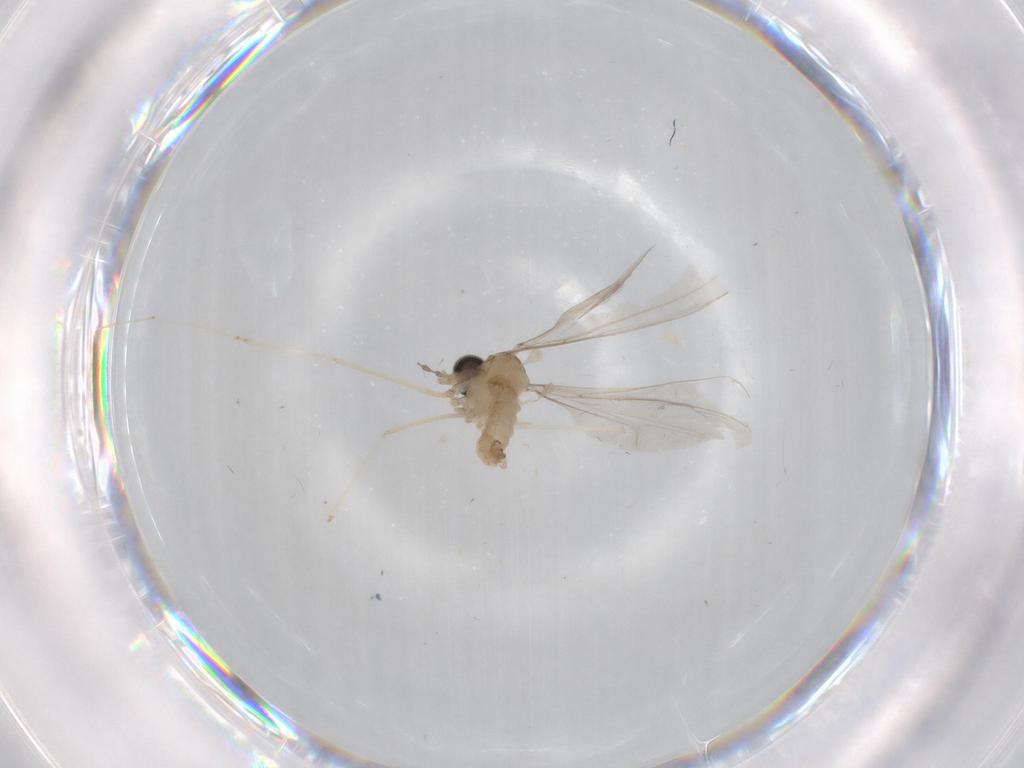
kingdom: Animalia
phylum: Arthropoda
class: Insecta
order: Diptera
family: Cecidomyiidae
